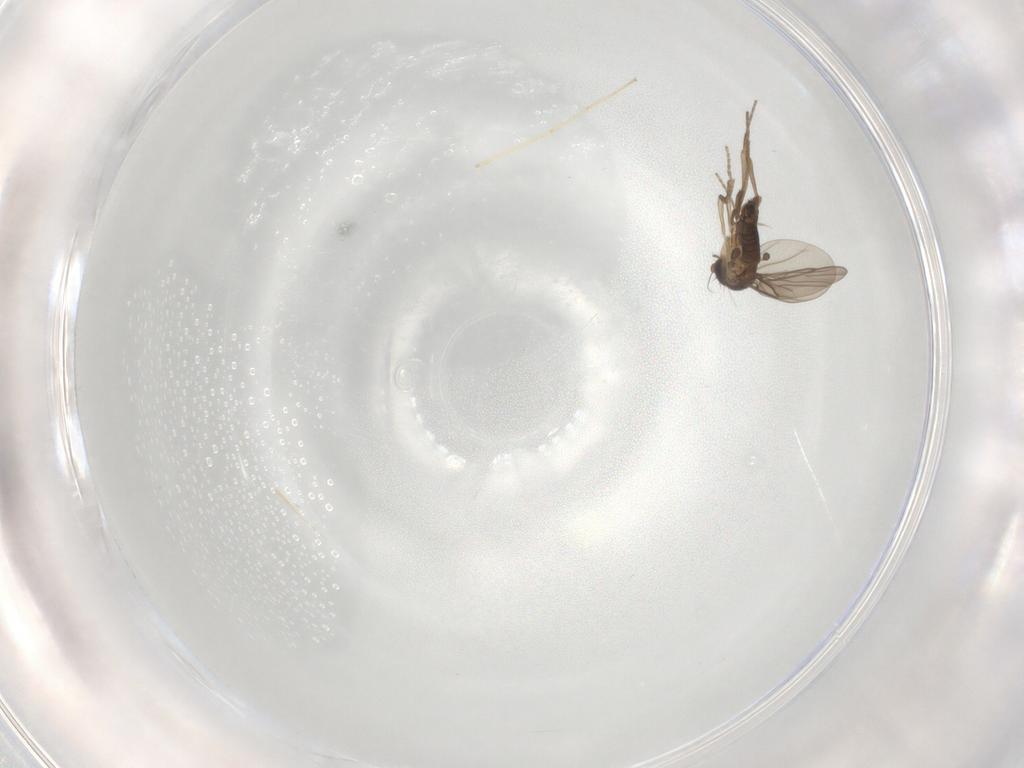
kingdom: Animalia
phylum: Arthropoda
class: Insecta
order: Diptera
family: Phoridae
